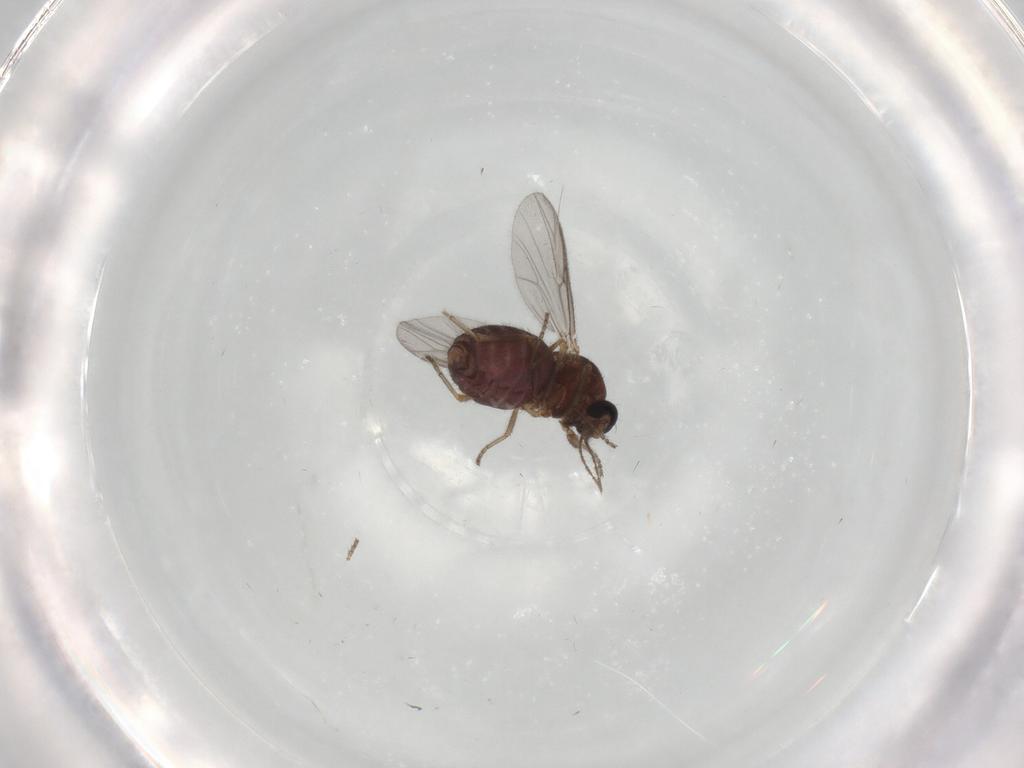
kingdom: Animalia
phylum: Arthropoda
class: Insecta
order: Diptera
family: Ceratopogonidae
